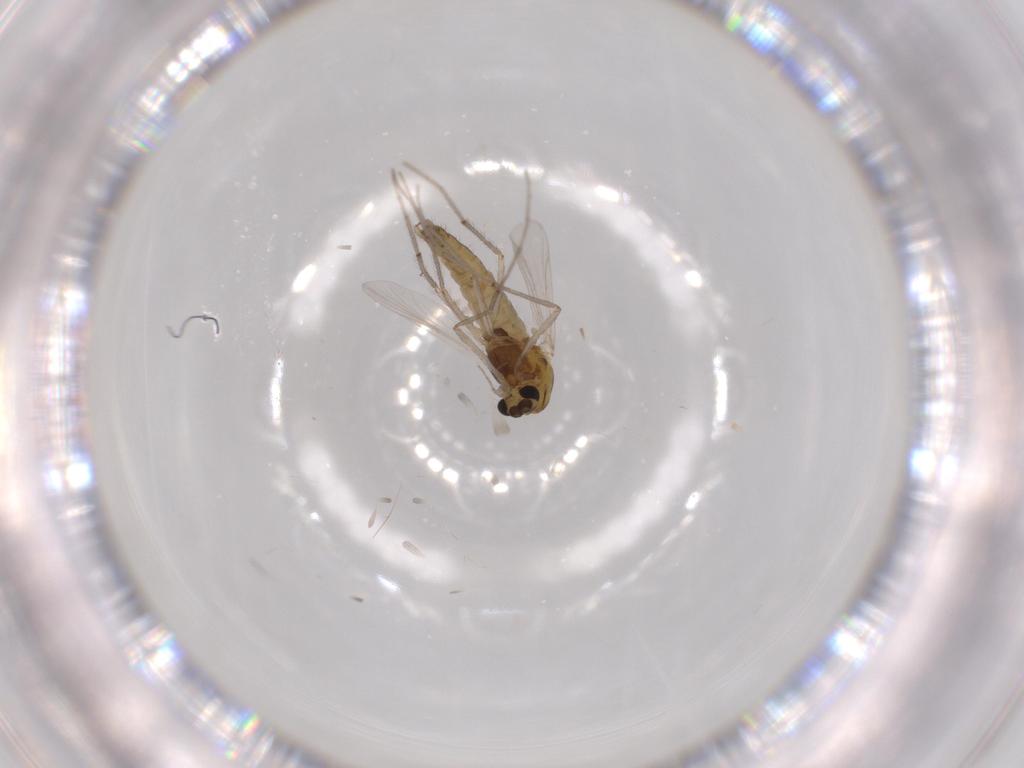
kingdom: Animalia
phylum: Arthropoda
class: Insecta
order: Diptera
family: Chironomidae
